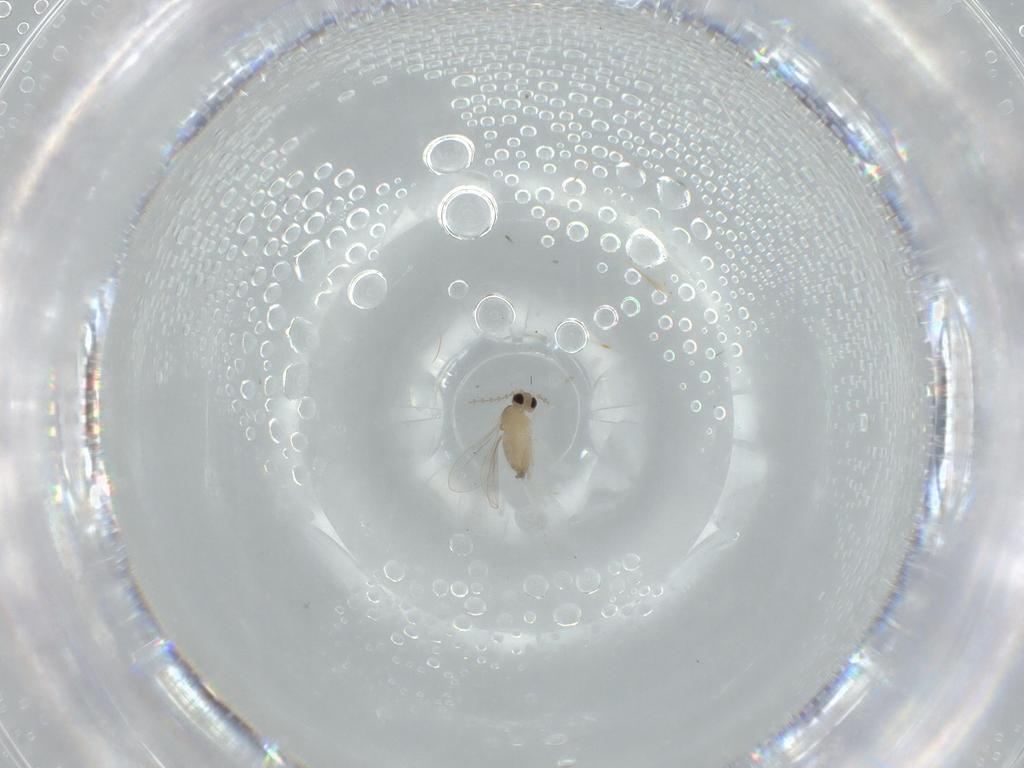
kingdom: Animalia
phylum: Arthropoda
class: Insecta
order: Diptera
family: Cecidomyiidae
